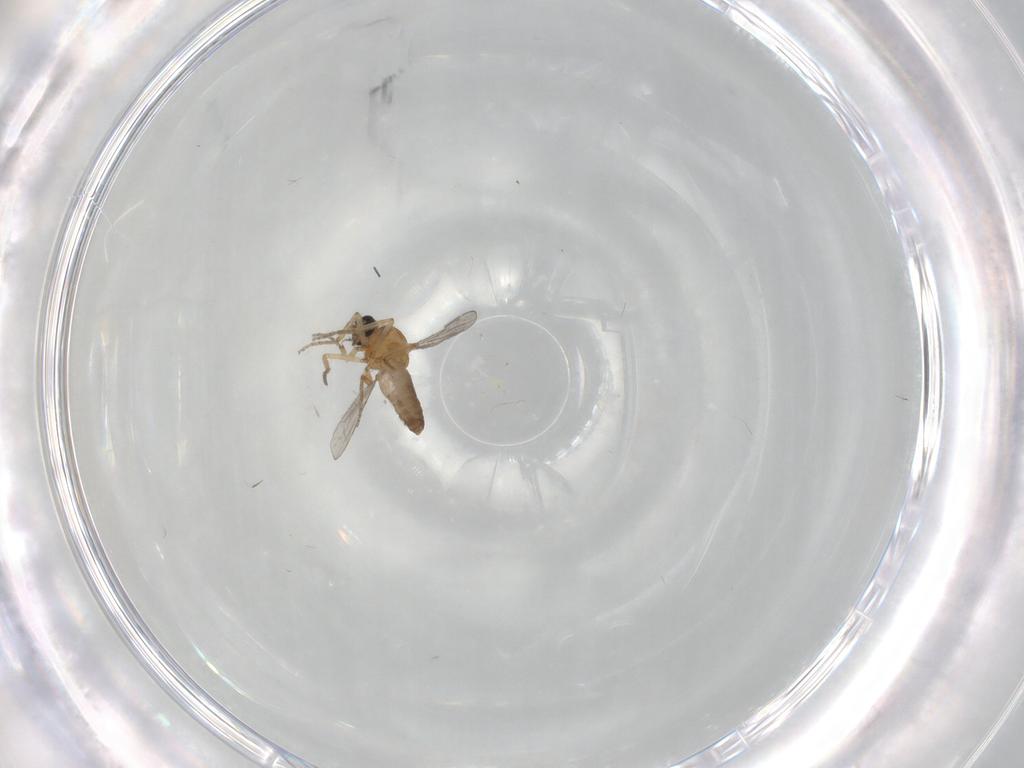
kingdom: Animalia
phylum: Arthropoda
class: Insecta
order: Diptera
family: Ceratopogonidae
